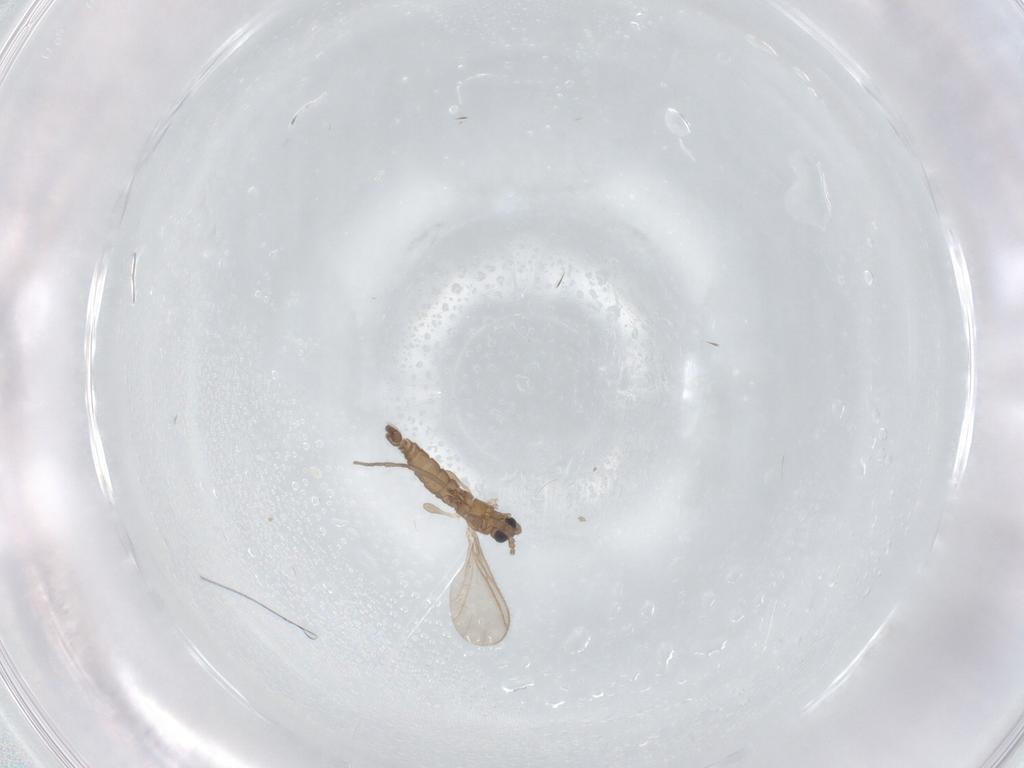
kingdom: Animalia
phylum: Arthropoda
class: Insecta
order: Diptera
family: Sciaridae
